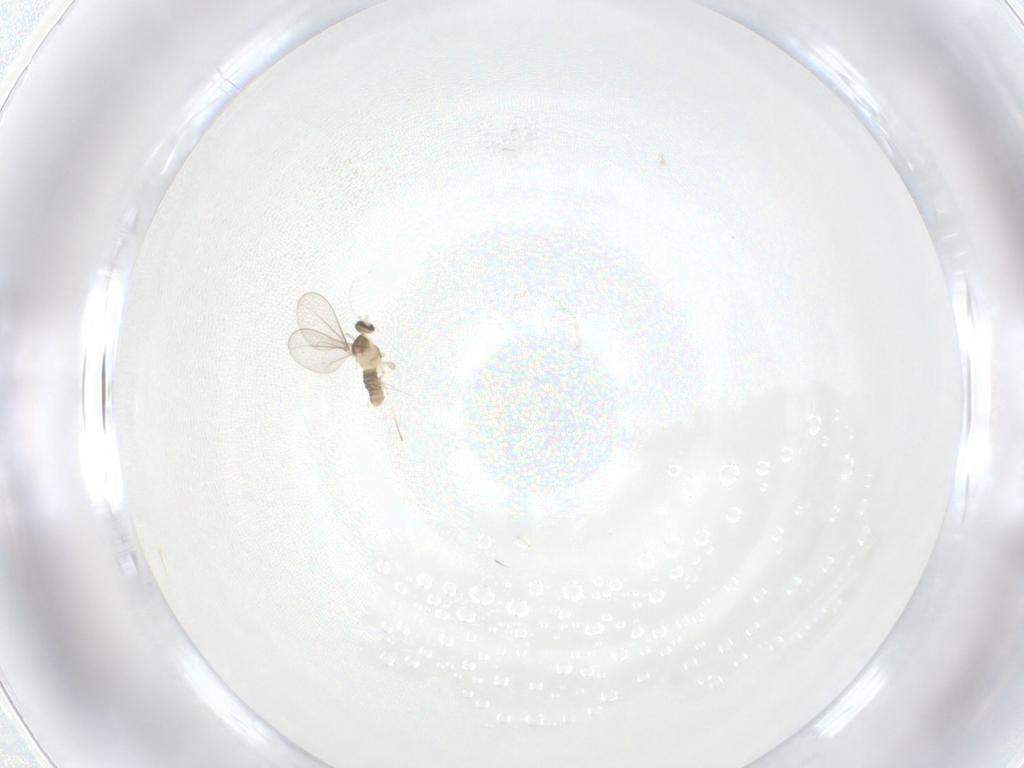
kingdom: Animalia
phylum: Arthropoda
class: Insecta
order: Diptera
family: Cecidomyiidae
